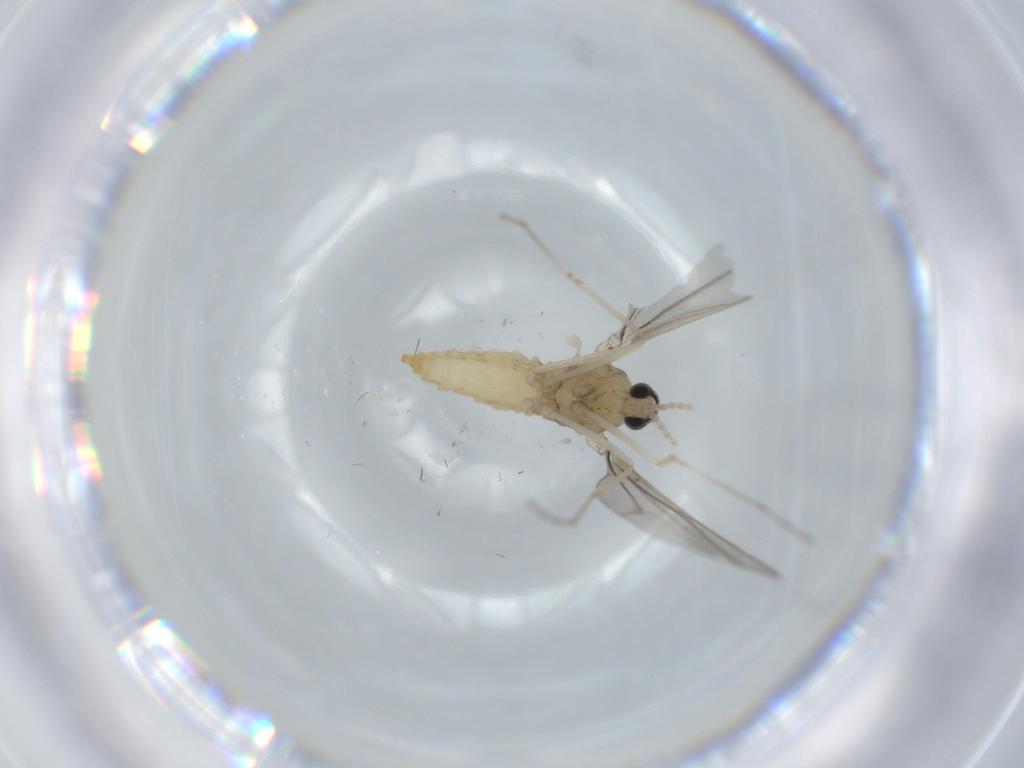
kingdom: Animalia
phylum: Arthropoda
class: Insecta
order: Diptera
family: Cecidomyiidae
